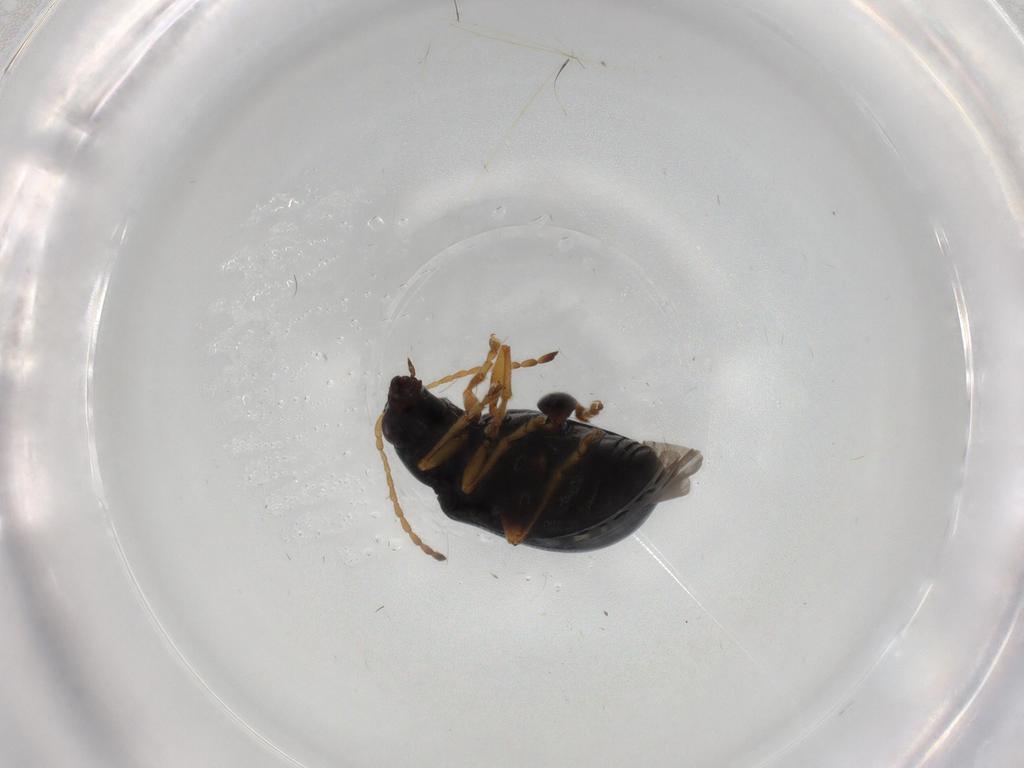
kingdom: Animalia
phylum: Arthropoda
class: Insecta
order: Coleoptera
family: Chrysomelidae
